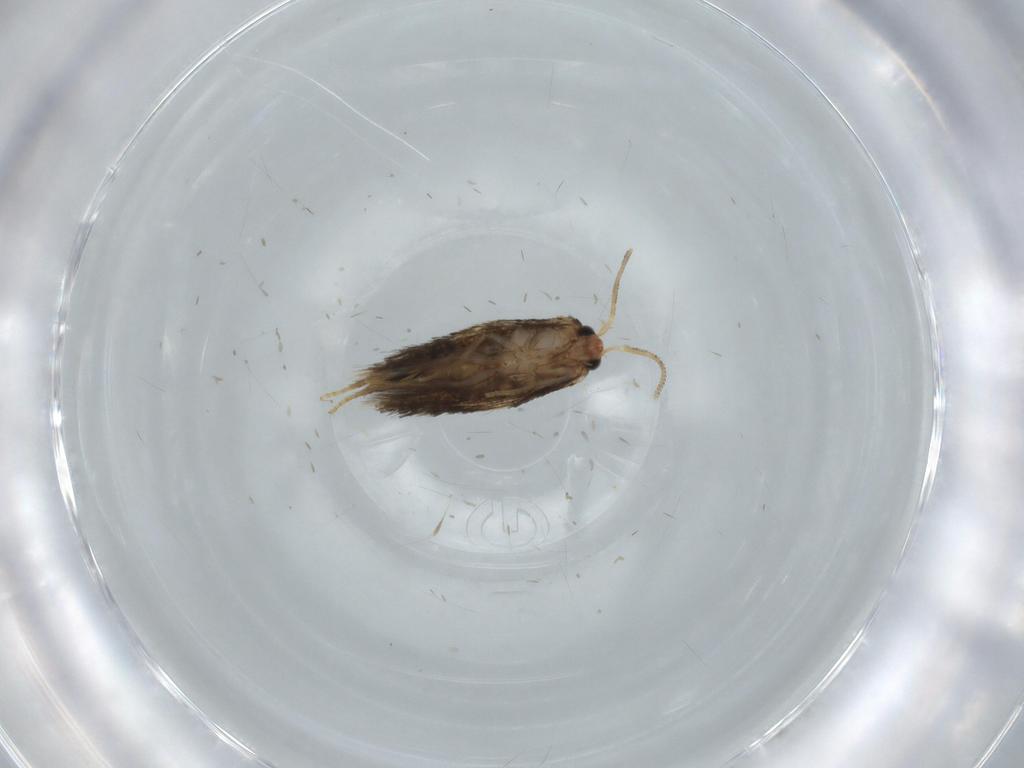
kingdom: Animalia
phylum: Arthropoda
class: Insecta
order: Lepidoptera
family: Nepticulidae
